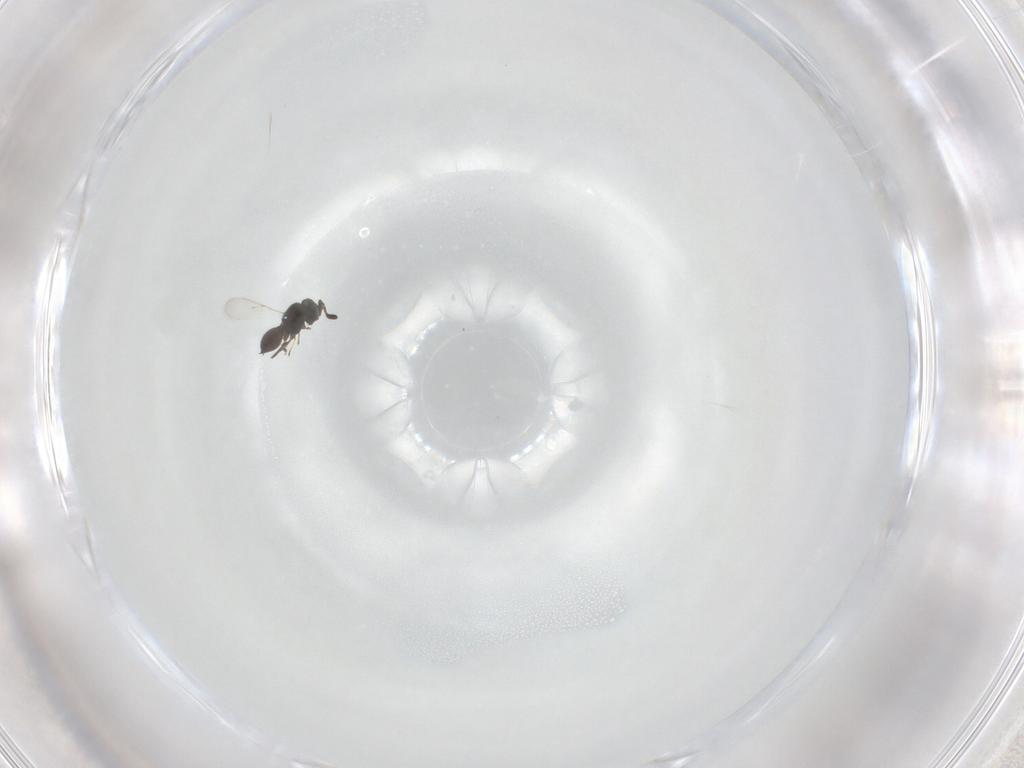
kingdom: Animalia
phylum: Arthropoda
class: Insecta
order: Hymenoptera
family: Scelionidae
